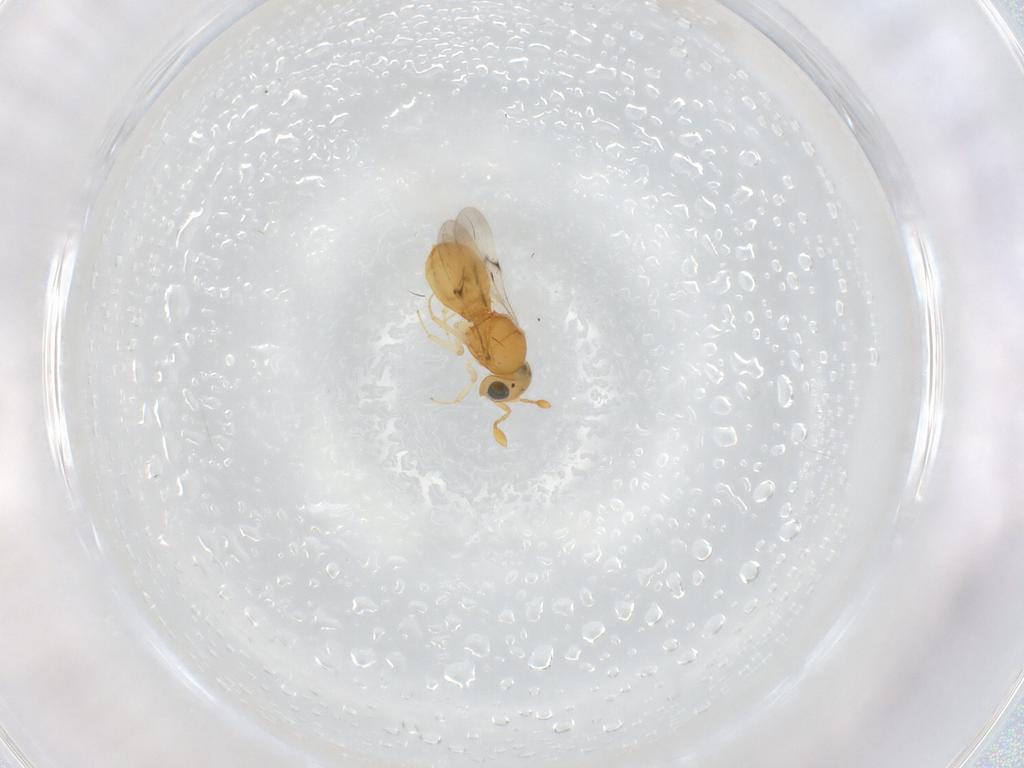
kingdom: Animalia
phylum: Arthropoda
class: Insecta
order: Hymenoptera
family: Scelionidae
